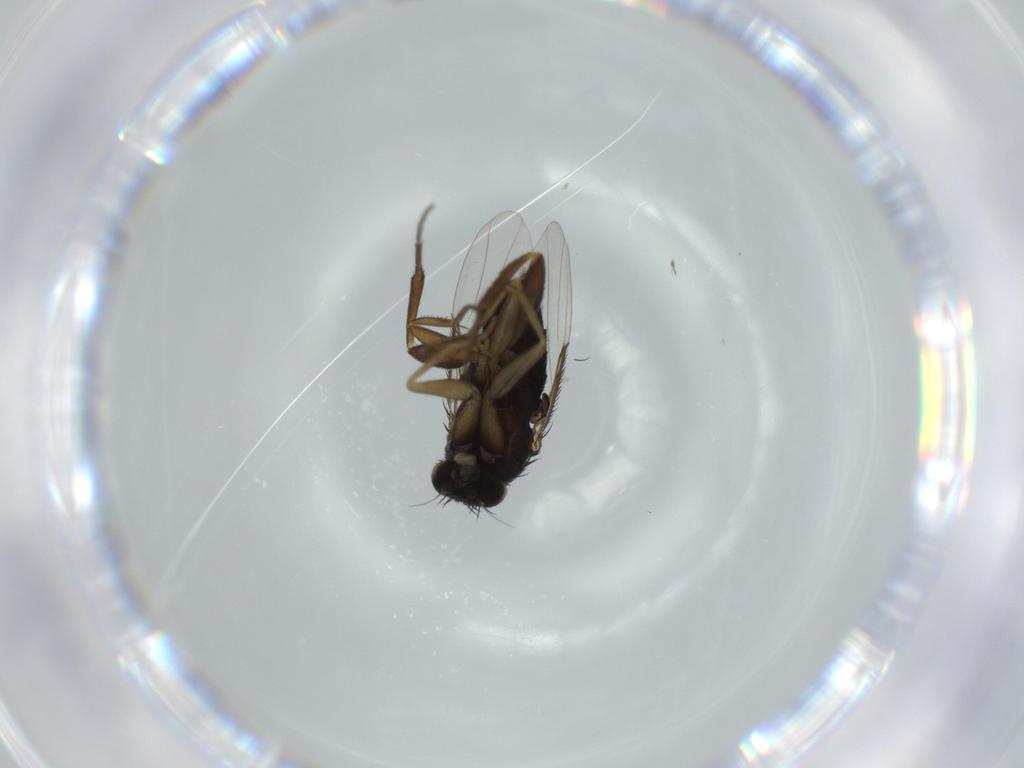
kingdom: Animalia
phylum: Arthropoda
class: Insecta
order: Diptera
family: Phoridae
